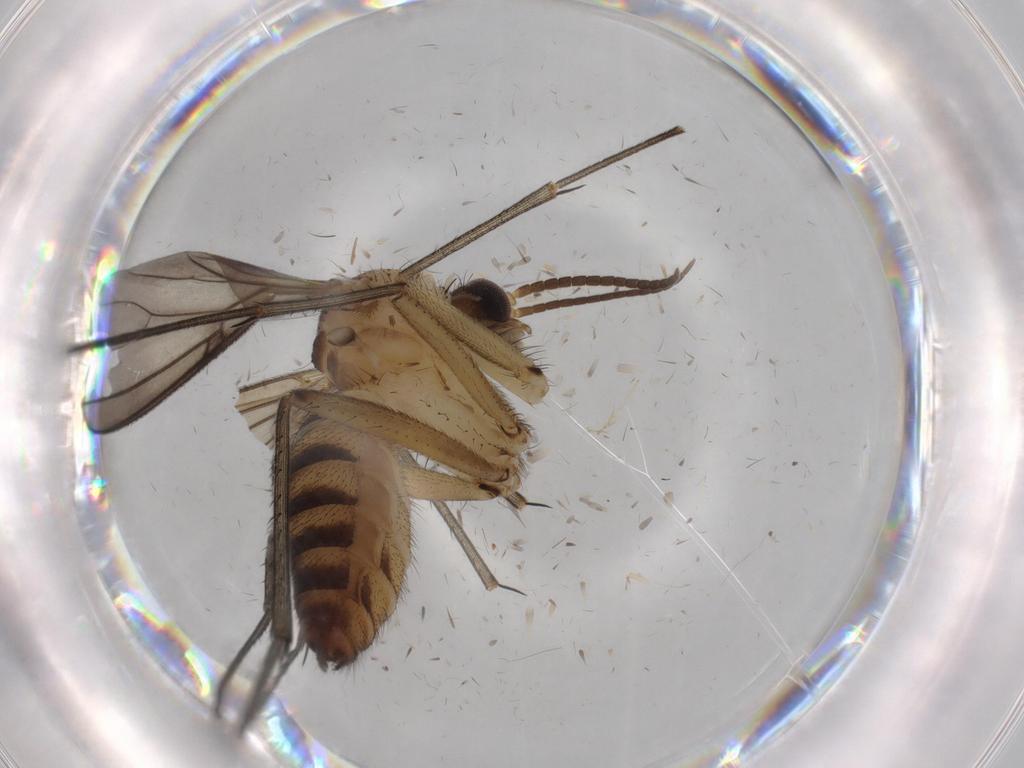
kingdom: Animalia
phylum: Arthropoda
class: Insecta
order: Diptera
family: Mycetophilidae
